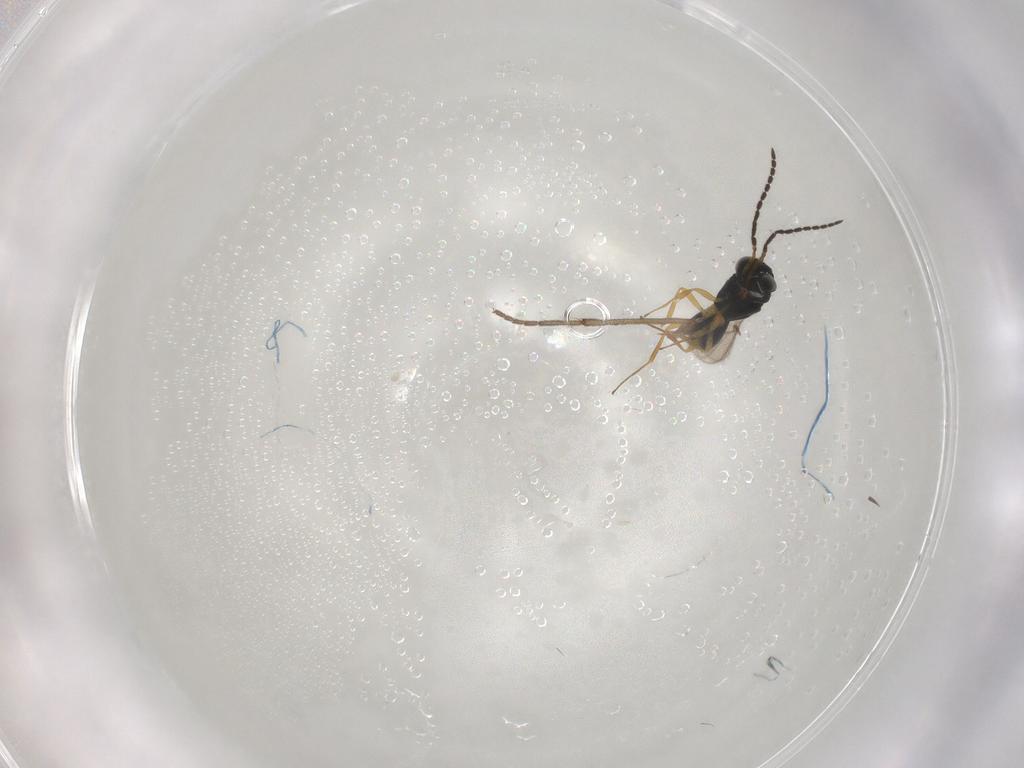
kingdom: Animalia
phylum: Arthropoda
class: Insecta
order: Hymenoptera
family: Scelionidae
